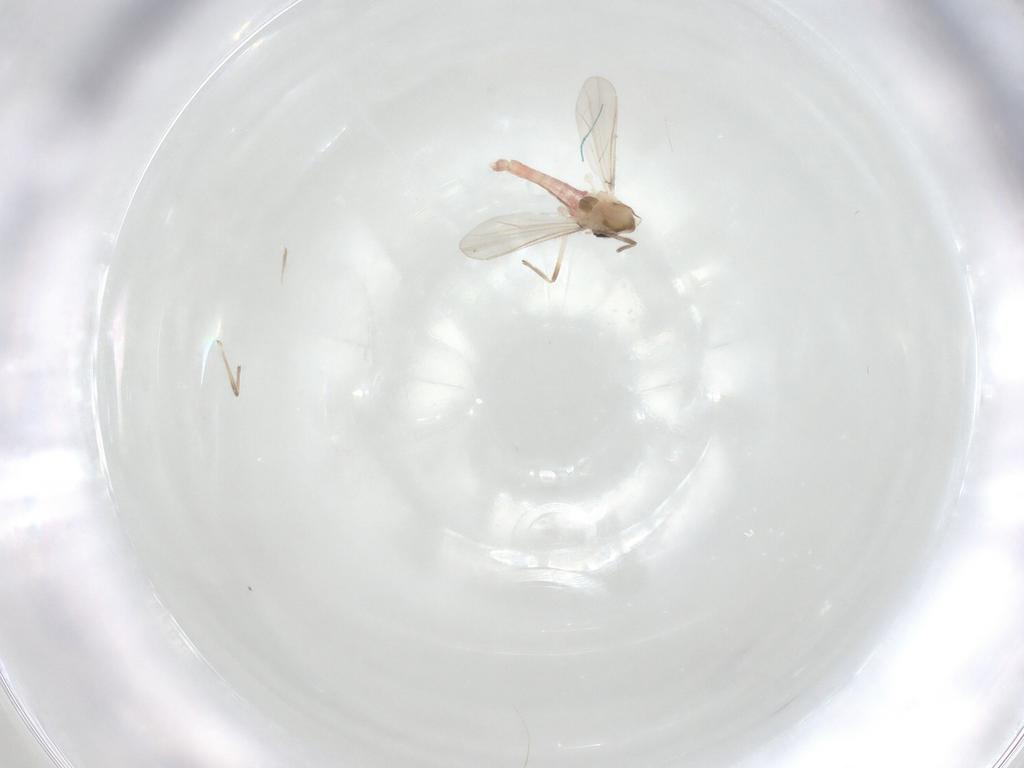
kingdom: Animalia
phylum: Arthropoda
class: Insecta
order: Diptera
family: Chironomidae
